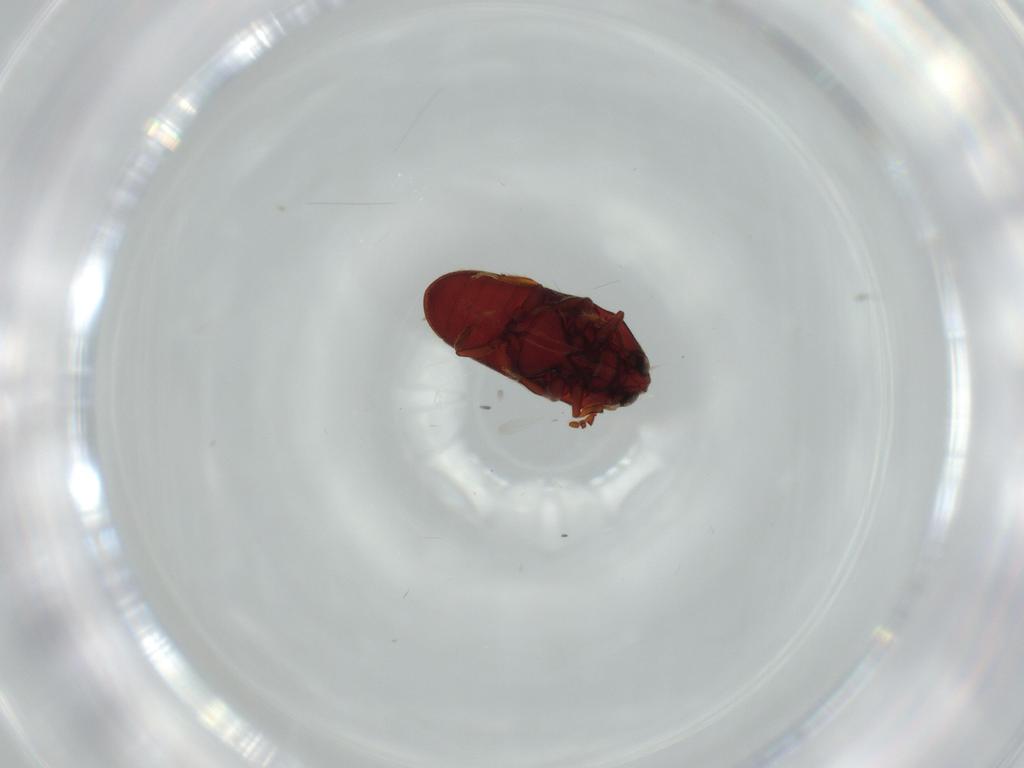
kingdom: Animalia
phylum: Arthropoda
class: Insecta
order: Coleoptera
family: Throscidae
